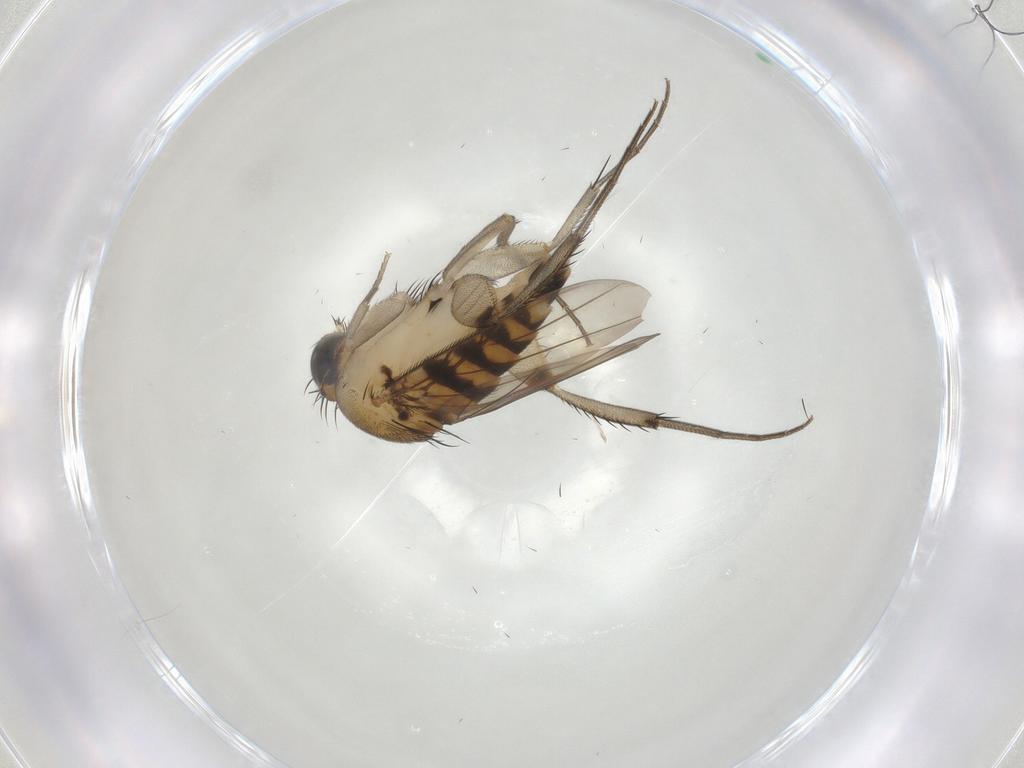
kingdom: Animalia
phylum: Arthropoda
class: Insecta
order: Diptera
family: Phoridae
